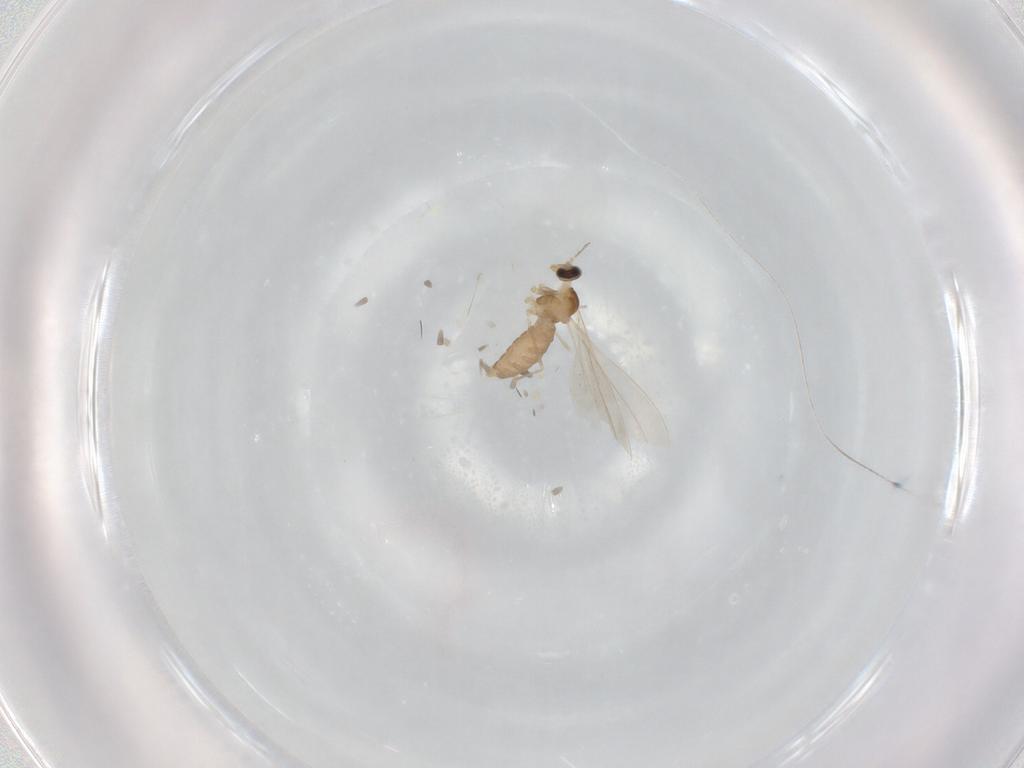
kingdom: Animalia
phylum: Arthropoda
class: Insecta
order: Diptera
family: Cecidomyiidae
